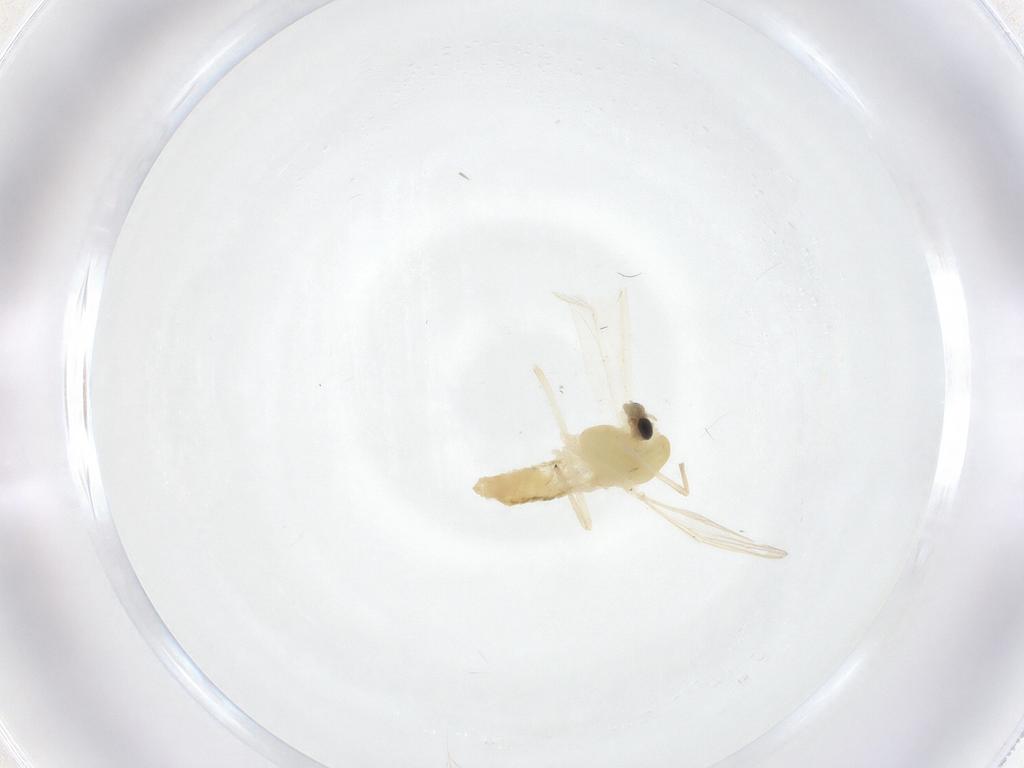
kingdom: Animalia
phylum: Arthropoda
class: Insecta
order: Diptera
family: Chironomidae
